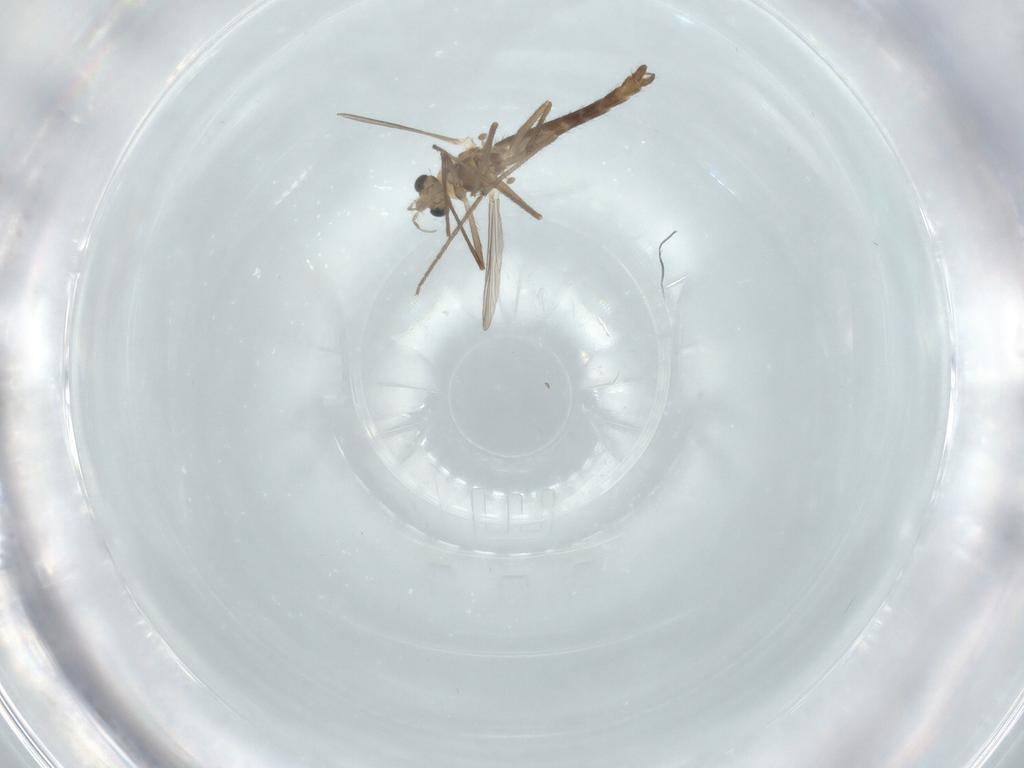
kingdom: Animalia
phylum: Arthropoda
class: Insecta
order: Diptera
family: Chironomidae
